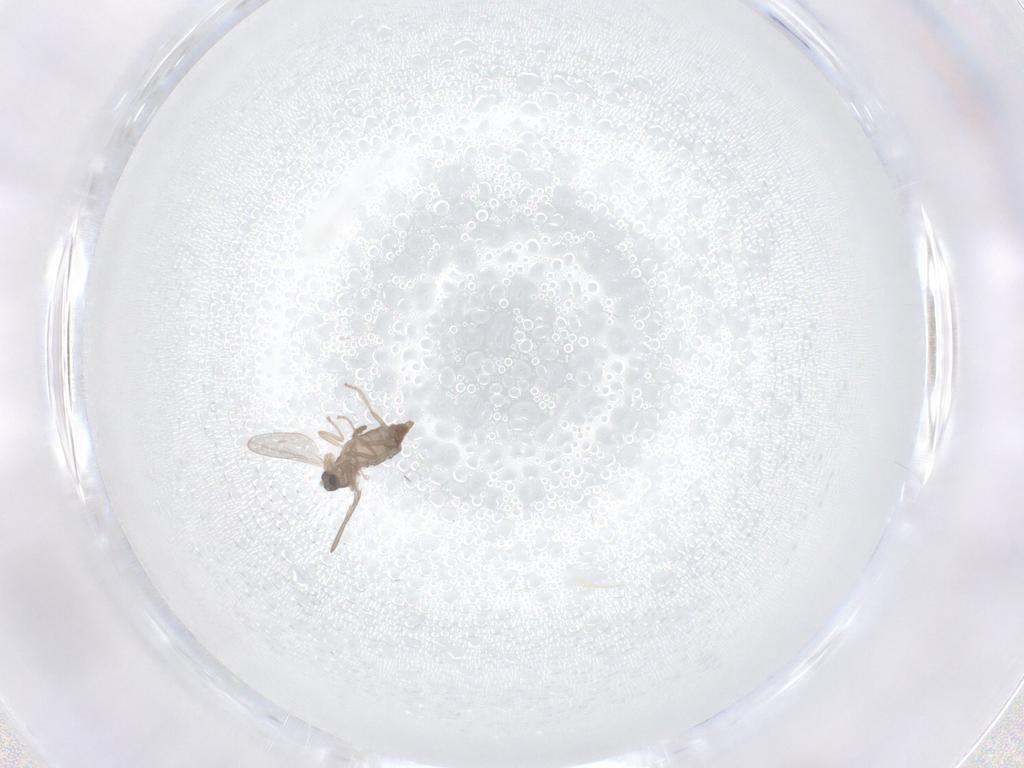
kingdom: Animalia
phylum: Arthropoda
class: Insecta
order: Diptera
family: Cecidomyiidae
